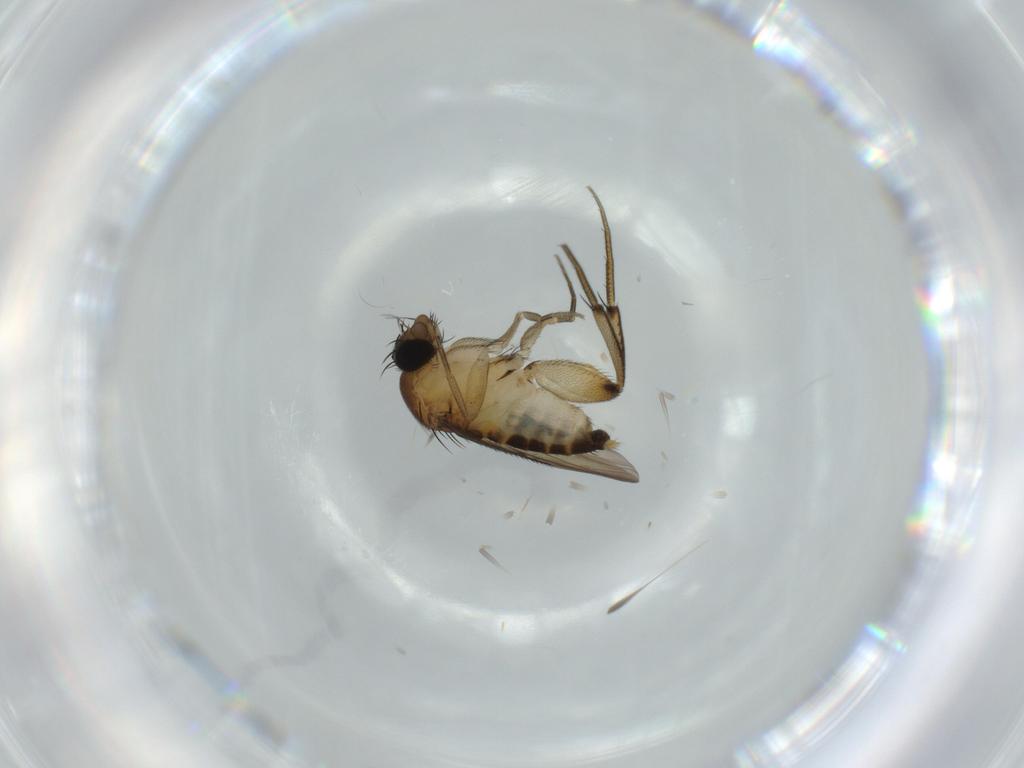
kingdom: Animalia
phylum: Arthropoda
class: Insecta
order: Diptera
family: Phoridae
